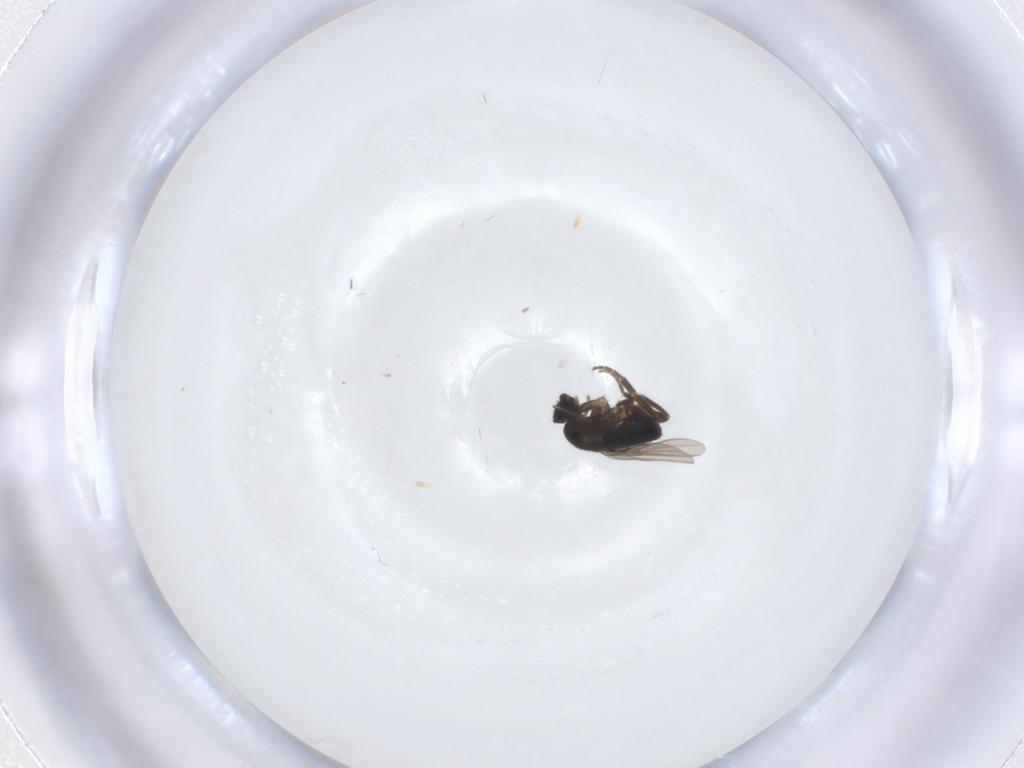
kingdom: Animalia
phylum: Arthropoda
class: Insecta
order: Diptera
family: Phoridae
